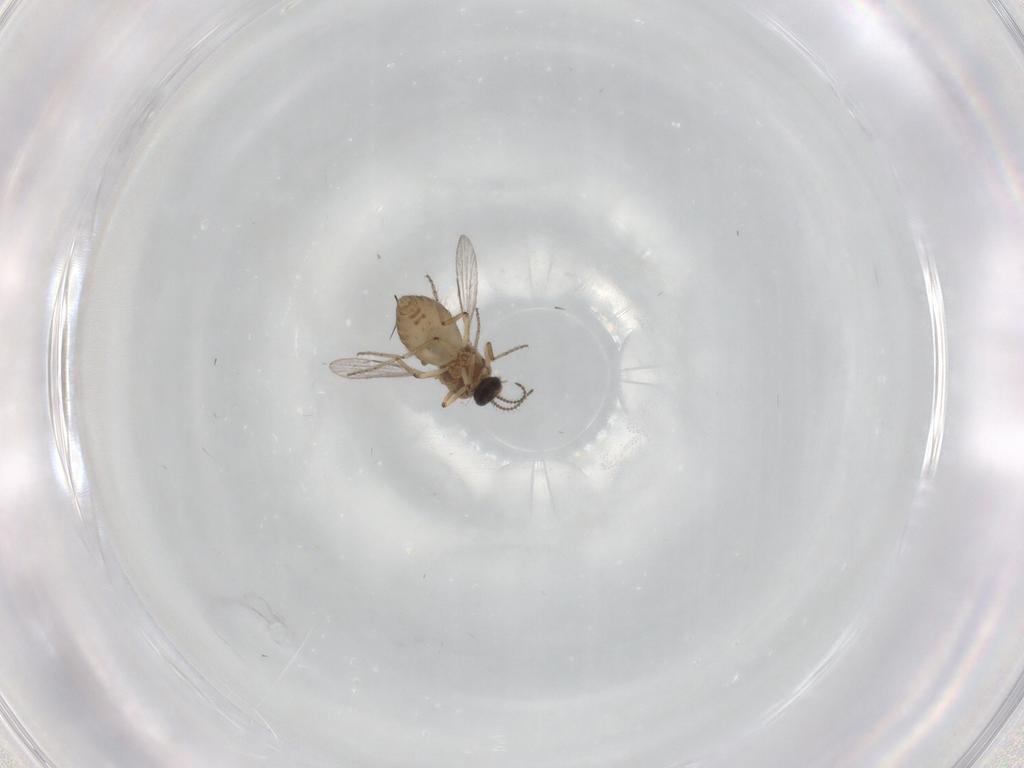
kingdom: Animalia
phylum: Arthropoda
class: Insecta
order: Diptera
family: Ceratopogonidae
